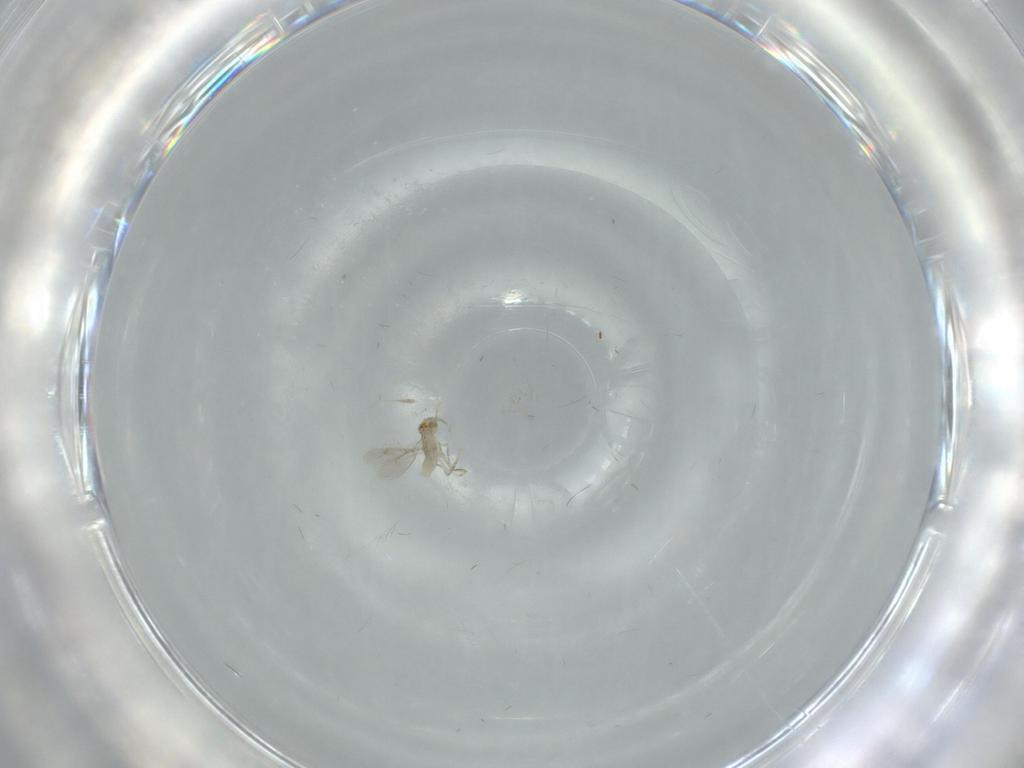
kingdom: Animalia
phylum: Arthropoda
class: Insecta
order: Hymenoptera
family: Aphelinidae
